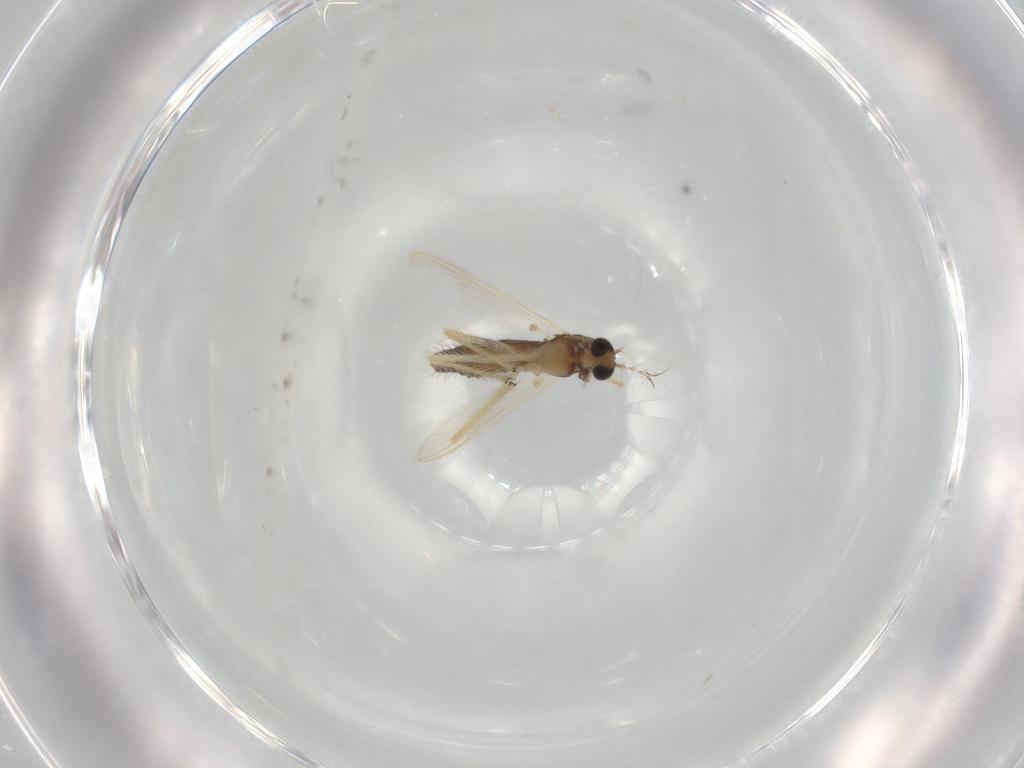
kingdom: Animalia
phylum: Arthropoda
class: Insecta
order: Diptera
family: Chironomidae
